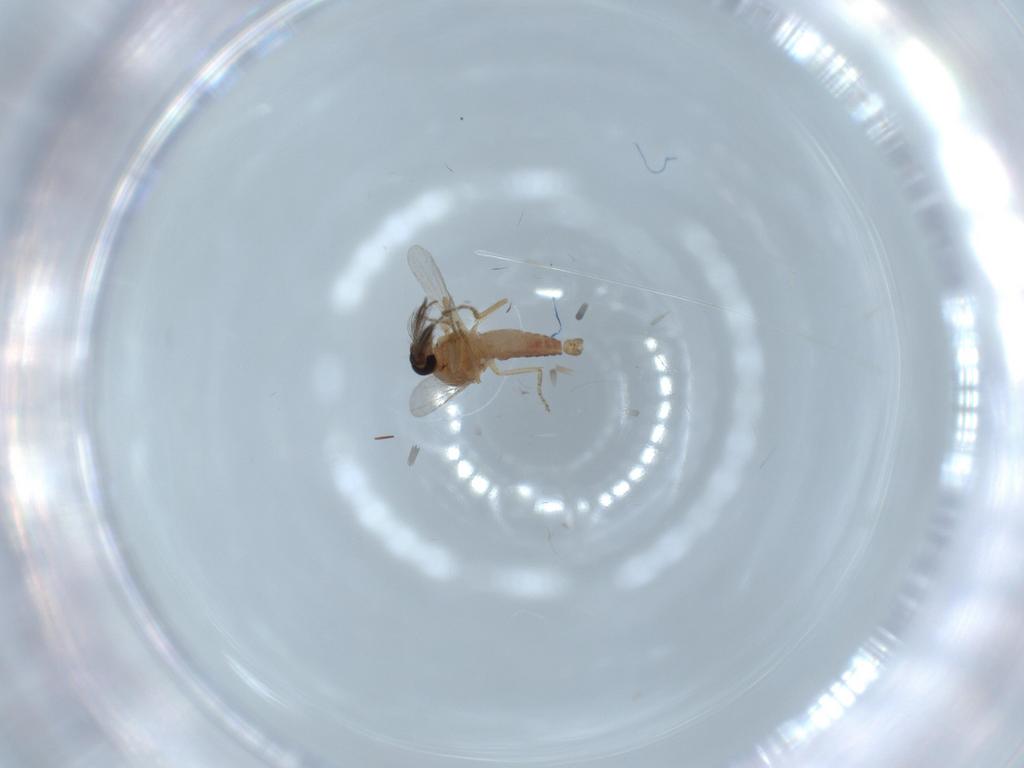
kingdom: Animalia
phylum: Arthropoda
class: Insecta
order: Diptera
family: Ceratopogonidae
